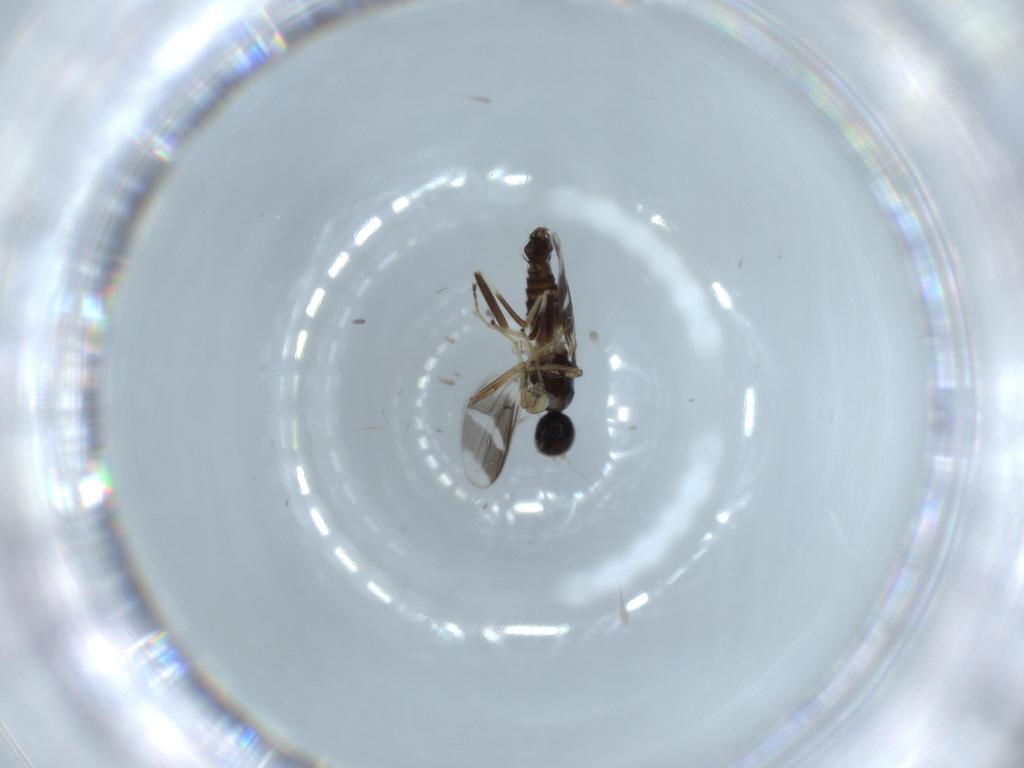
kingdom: Animalia
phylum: Arthropoda
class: Insecta
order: Diptera
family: Hybotidae
